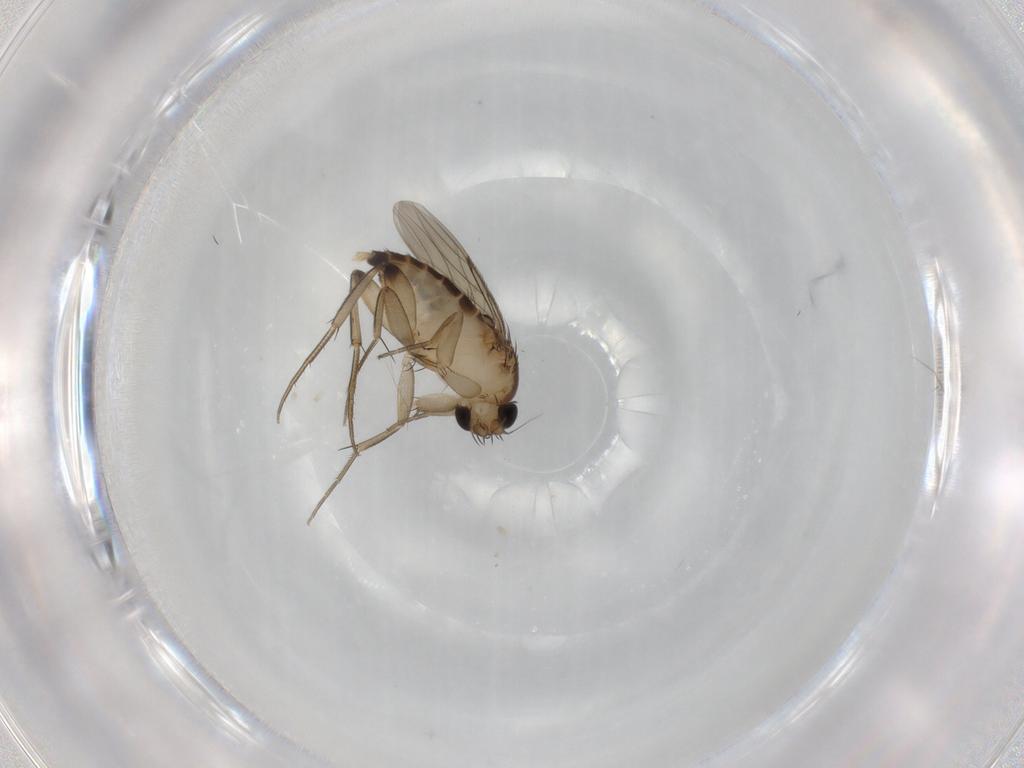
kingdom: Animalia
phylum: Arthropoda
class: Insecta
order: Diptera
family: Phoridae
